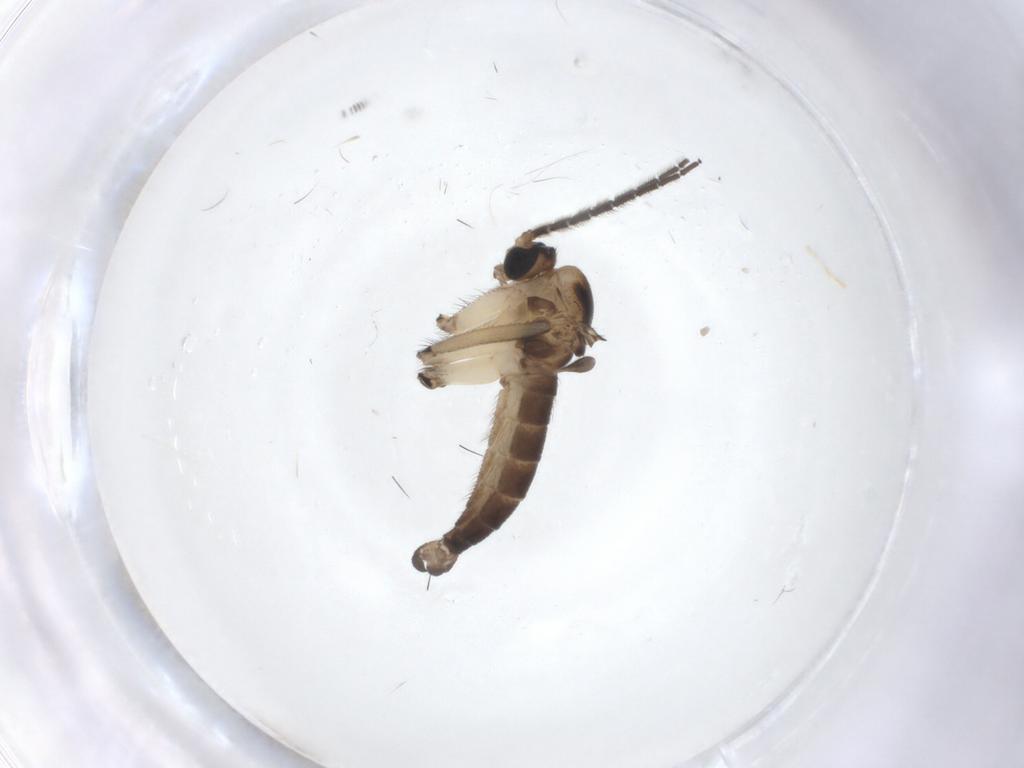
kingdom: Animalia
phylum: Arthropoda
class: Insecta
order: Diptera
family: Sciaridae
